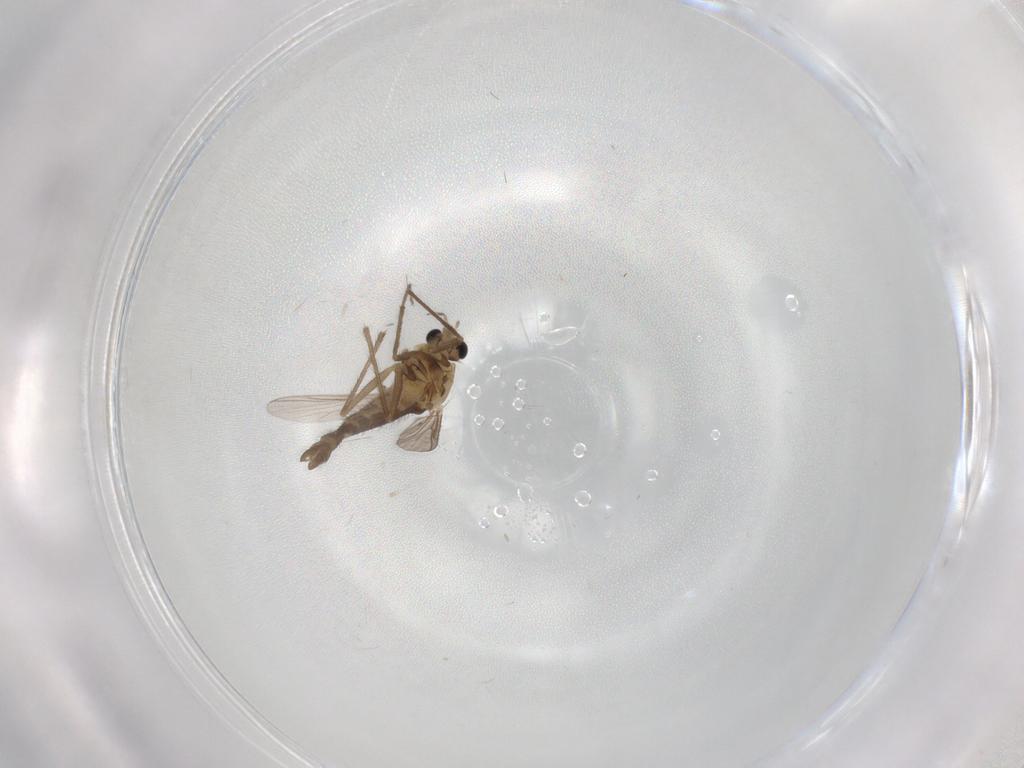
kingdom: Animalia
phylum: Arthropoda
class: Insecta
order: Diptera
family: Chironomidae
